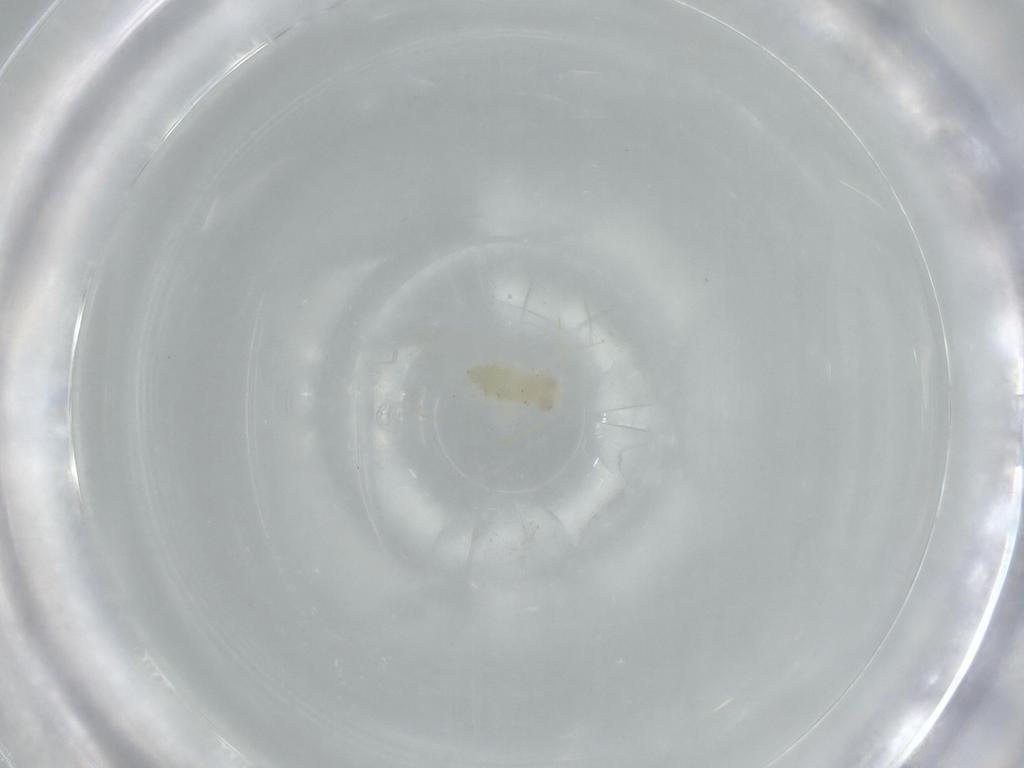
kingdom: Animalia
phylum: Arthropoda
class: Insecta
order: Hemiptera
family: Aleyrodidae
